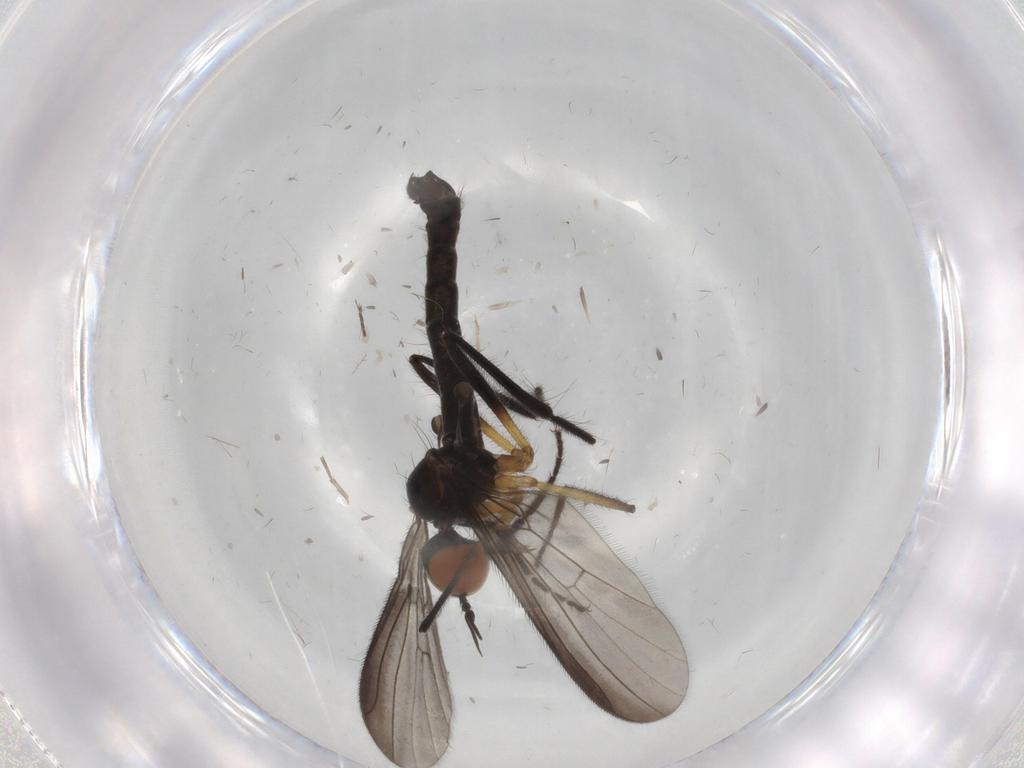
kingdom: Animalia
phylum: Arthropoda
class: Insecta
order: Diptera
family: Empididae
